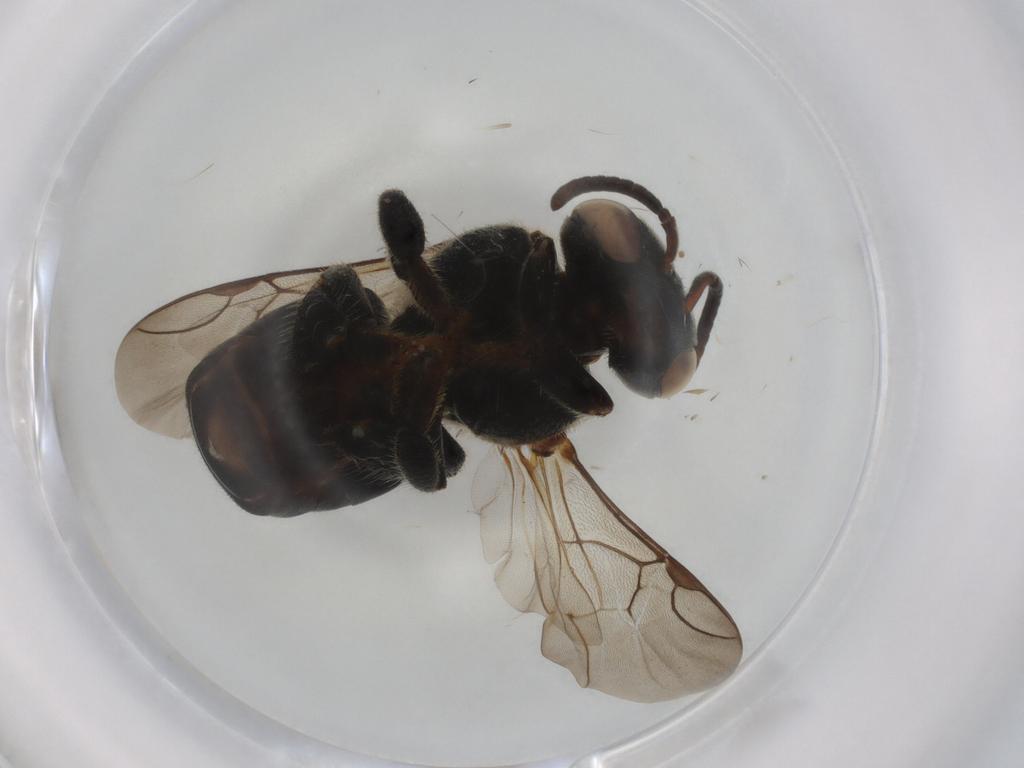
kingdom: Animalia
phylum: Arthropoda
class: Insecta
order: Hymenoptera
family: Apidae
